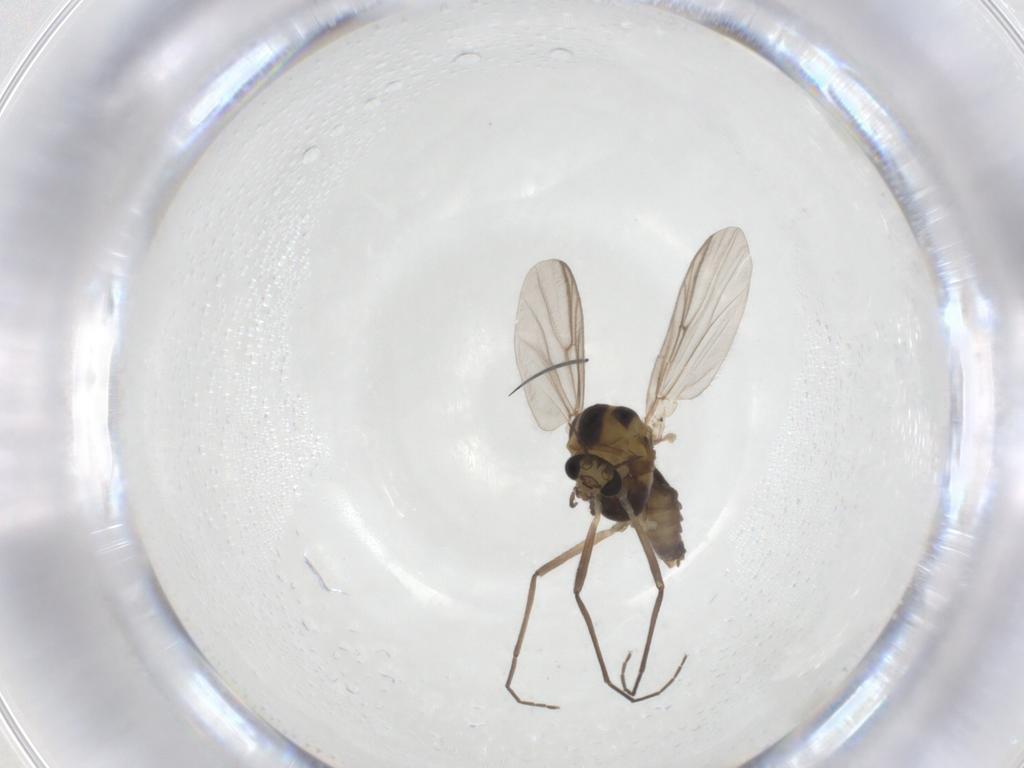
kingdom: Animalia
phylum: Arthropoda
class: Insecta
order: Diptera
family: Chironomidae
